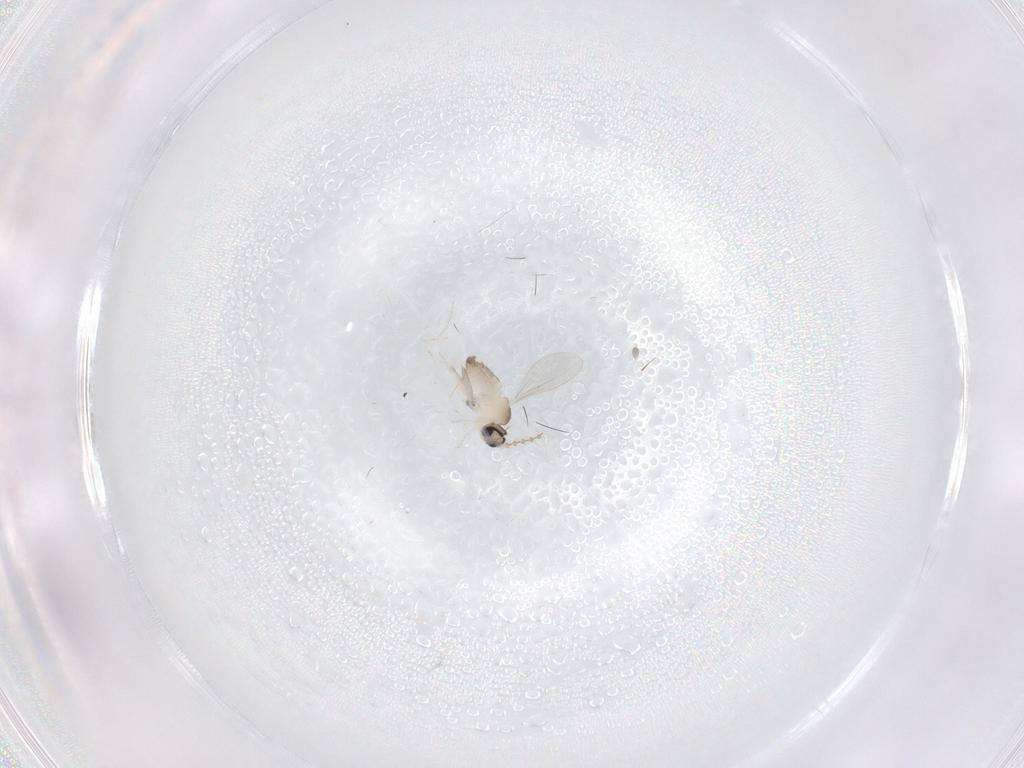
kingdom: Animalia
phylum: Arthropoda
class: Insecta
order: Diptera
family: Cecidomyiidae
